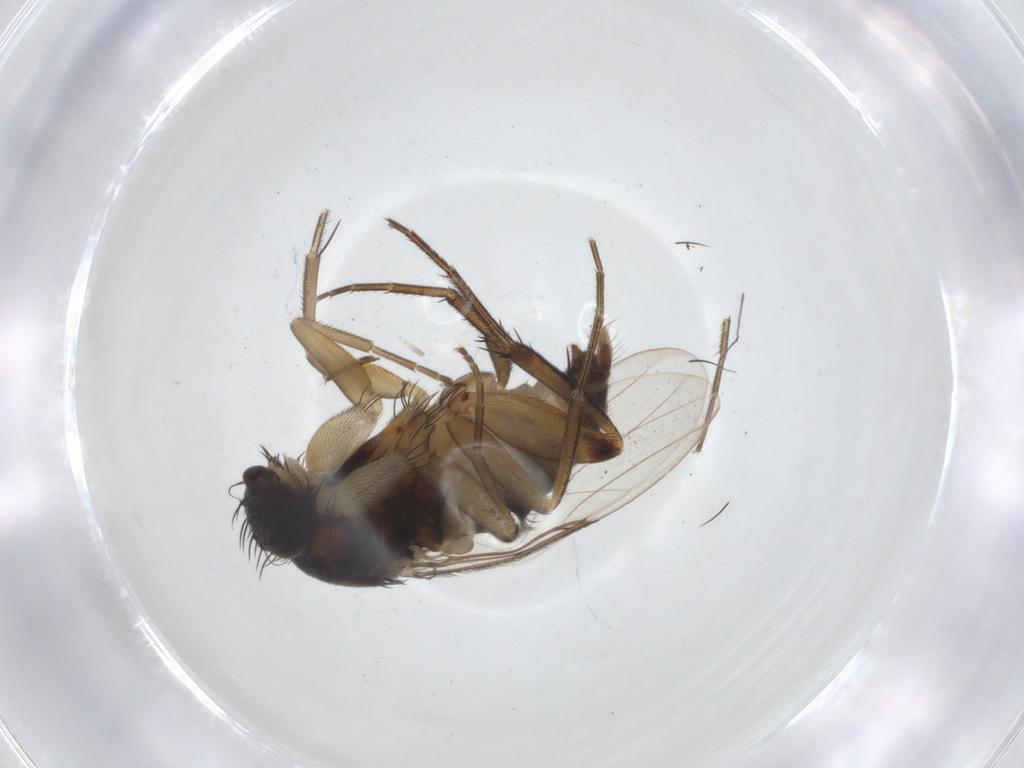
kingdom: Animalia
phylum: Arthropoda
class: Insecta
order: Diptera
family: Phoridae
